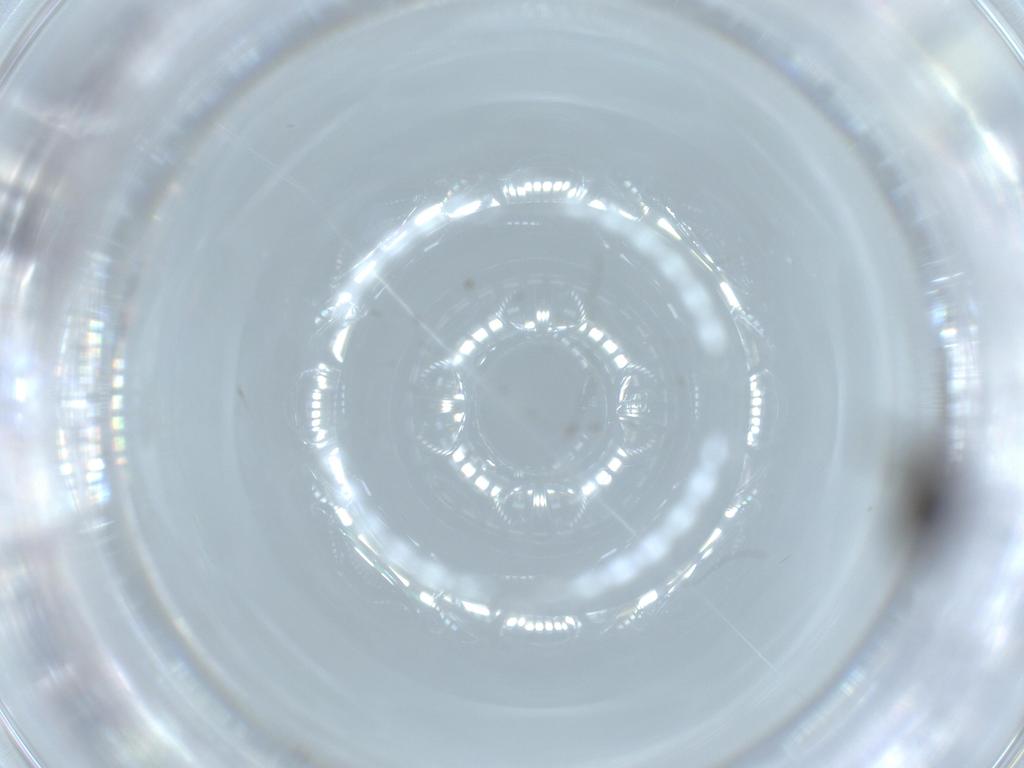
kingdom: Animalia
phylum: Arthropoda
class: Insecta
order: Diptera
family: Sciaridae
